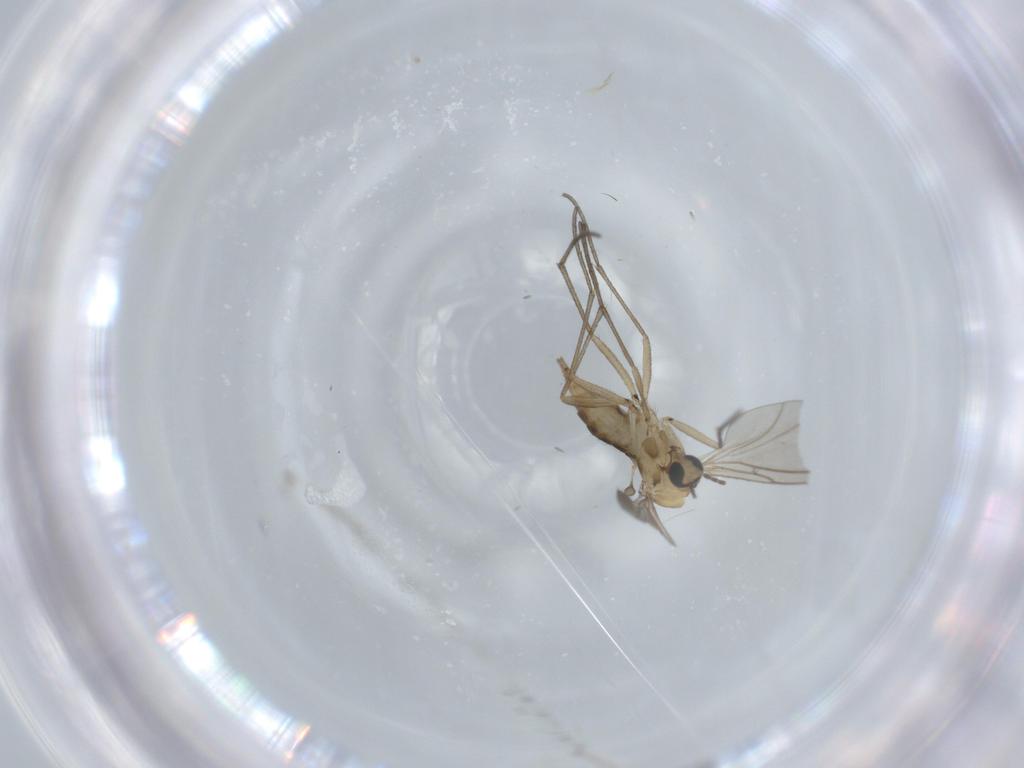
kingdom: Animalia
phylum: Arthropoda
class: Insecta
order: Diptera
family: Sciaridae
